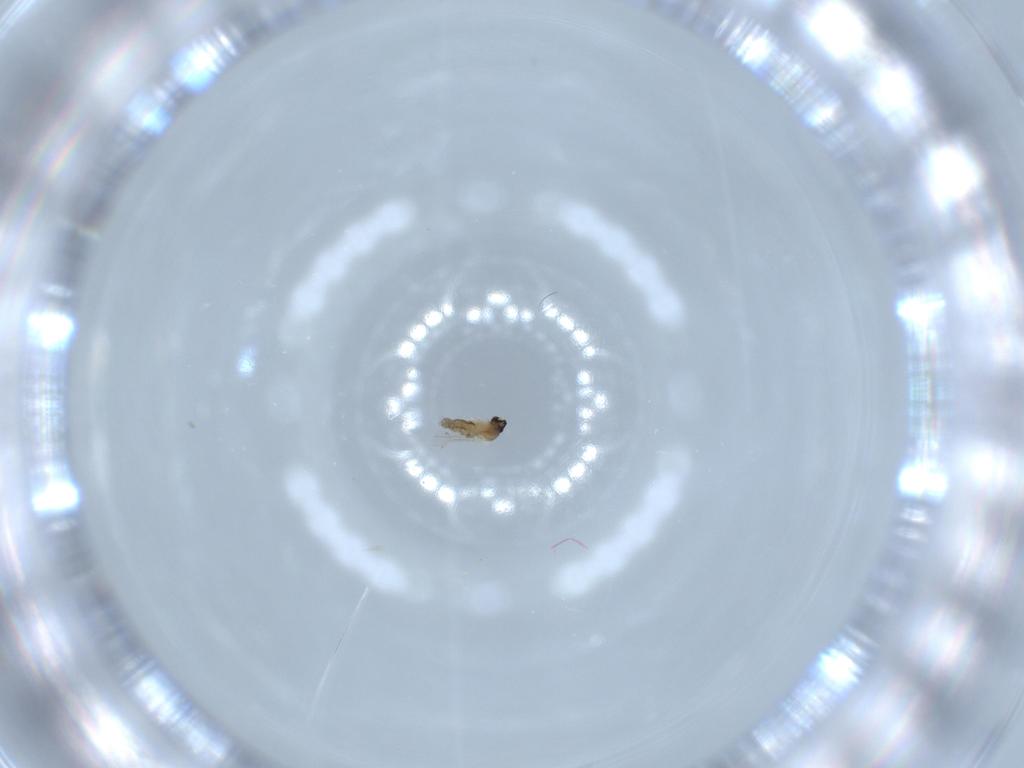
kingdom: Animalia
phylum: Arthropoda
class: Insecta
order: Diptera
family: Cecidomyiidae
